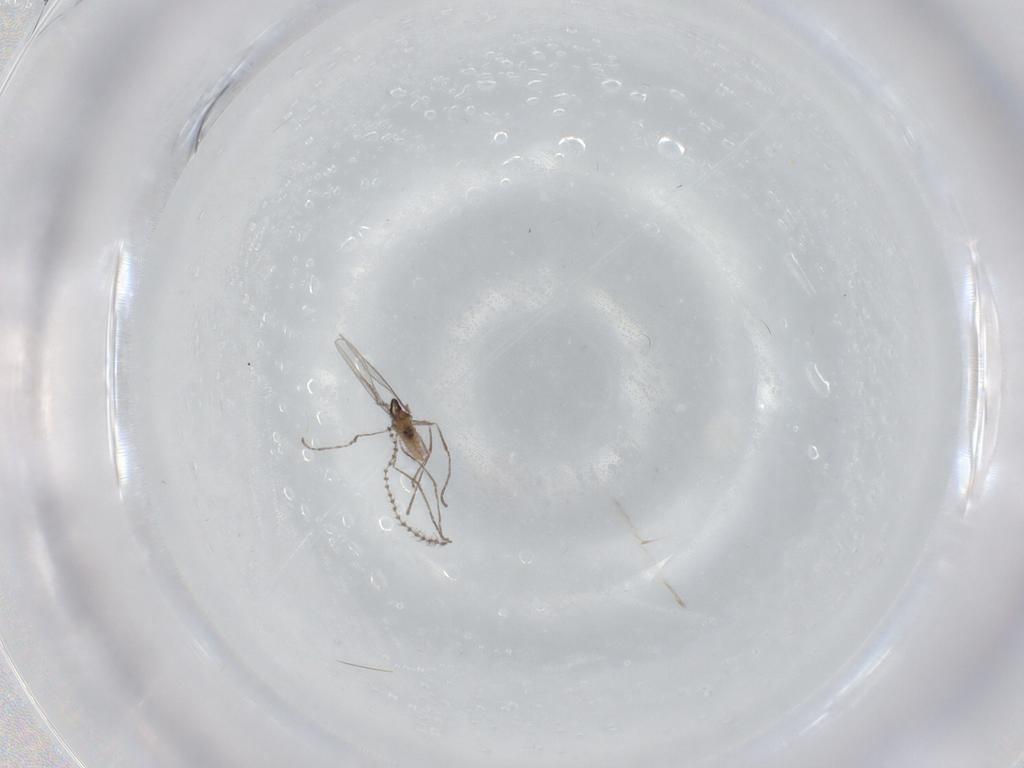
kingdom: Animalia
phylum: Arthropoda
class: Insecta
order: Diptera
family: Cecidomyiidae
